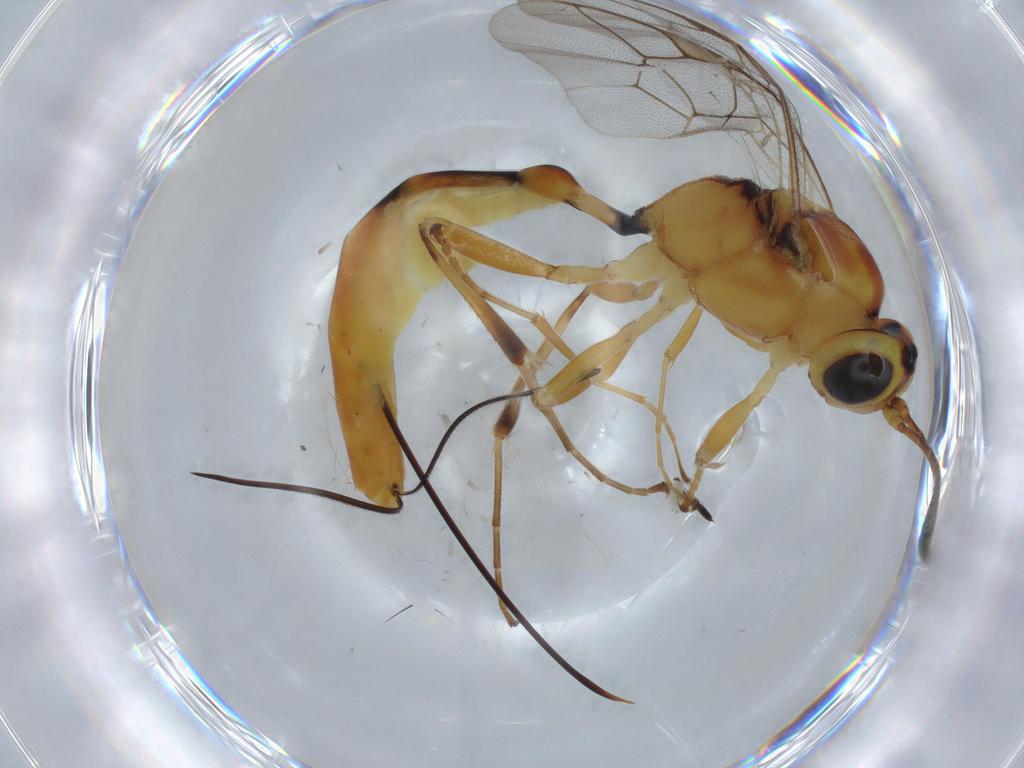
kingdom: Animalia
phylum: Arthropoda
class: Insecta
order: Hymenoptera
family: Ichneumonidae
